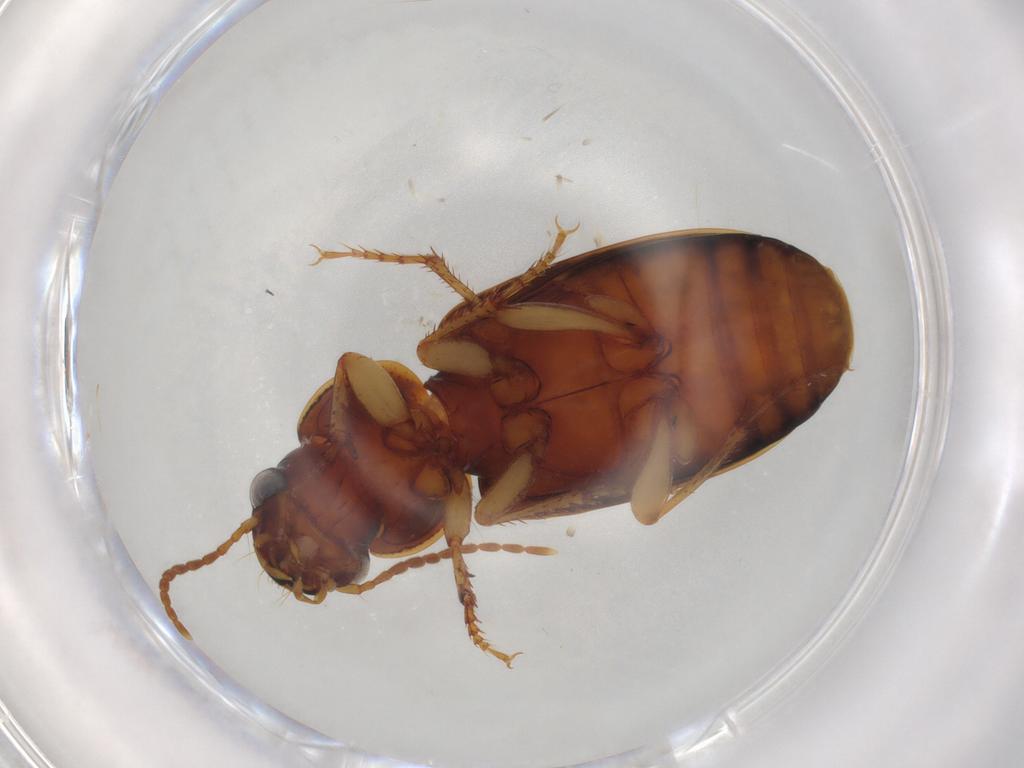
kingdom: Animalia
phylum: Arthropoda
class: Insecta
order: Coleoptera
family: Carabidae
